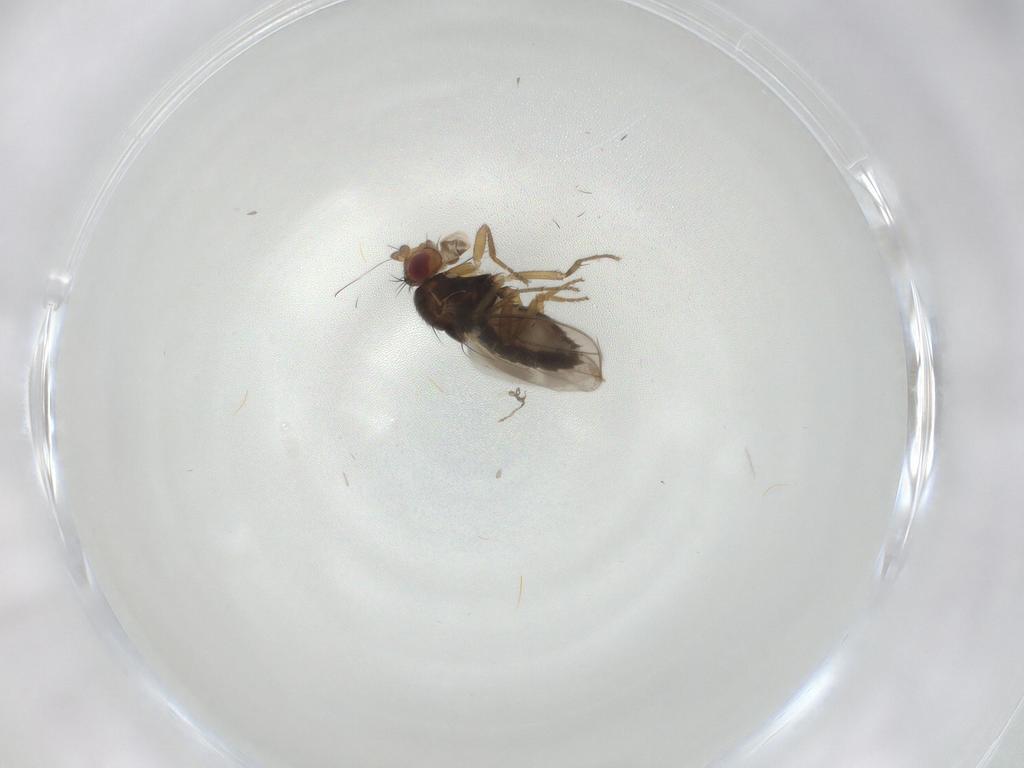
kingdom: Animalia
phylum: Arthropoda
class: Insecta
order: Diptera
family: Sphaeroceridae
